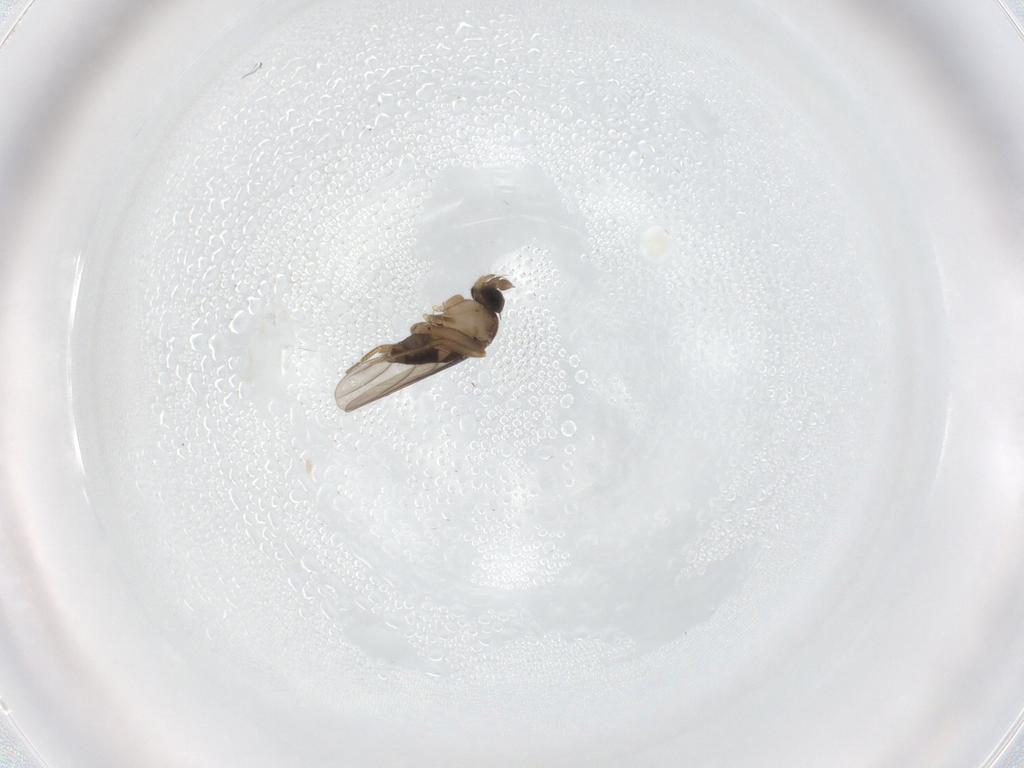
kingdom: Animalia
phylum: Arthropoda
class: Insecta
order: Diptera
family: Phoridae
